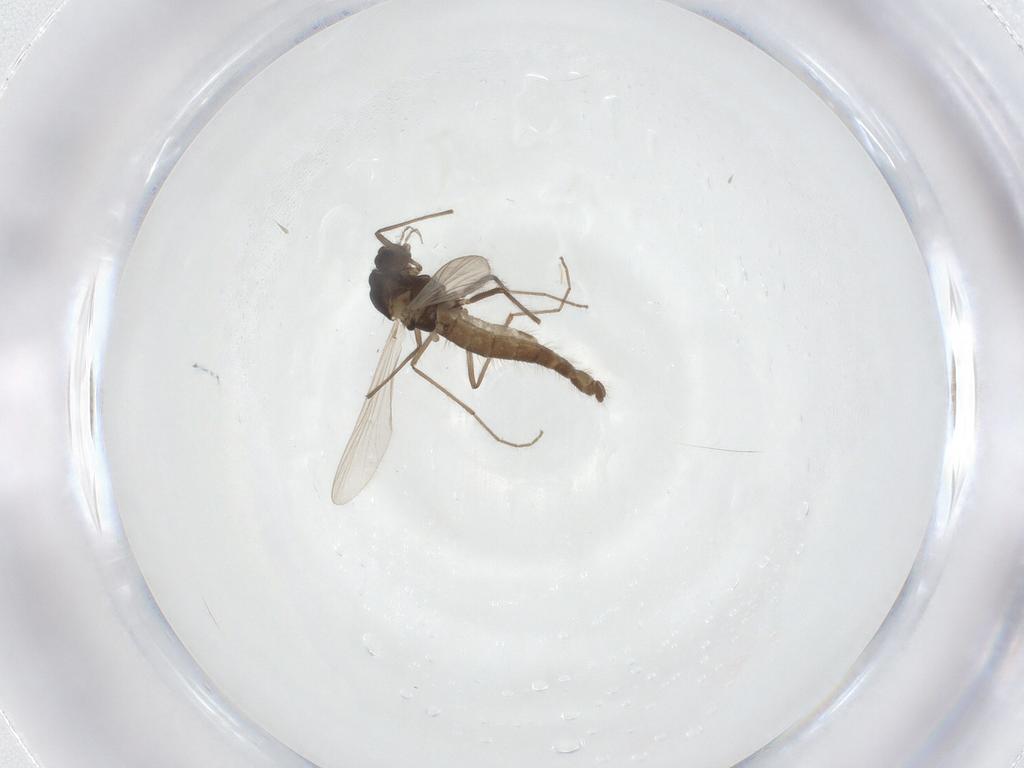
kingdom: Animalia
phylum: Arthropoda
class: Insecta
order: Diptera
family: Chironomidae
